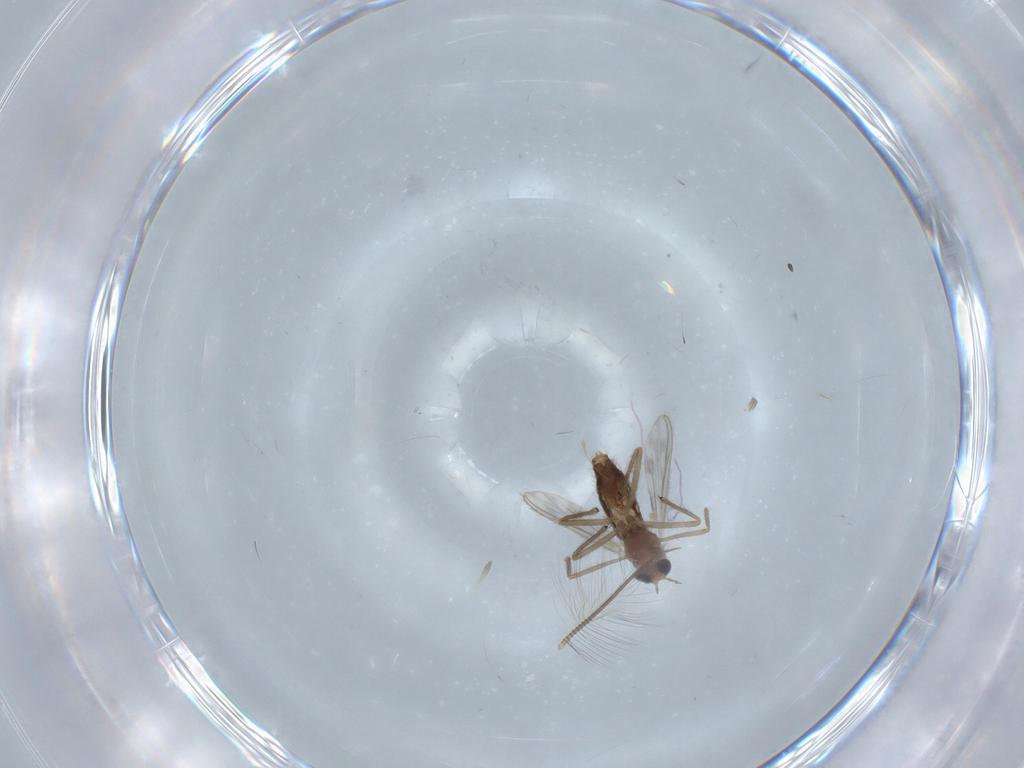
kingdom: Animalia
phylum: Arthropoda
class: Insecta
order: Diptera
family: Chironomidae
